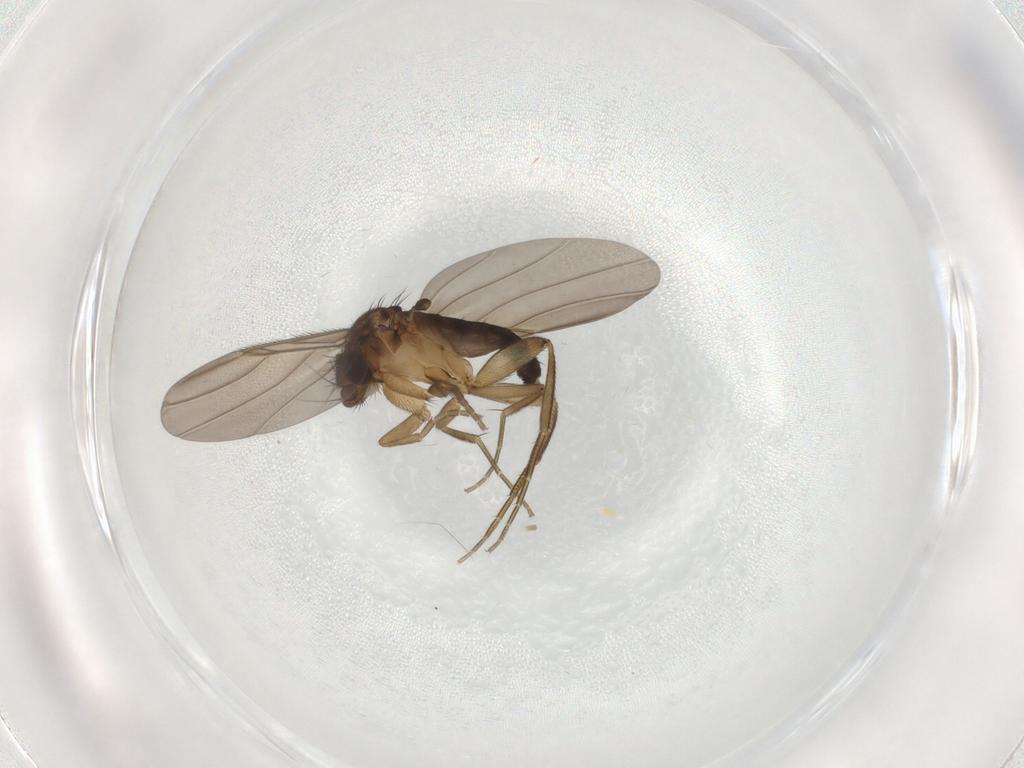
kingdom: Animalia
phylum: Arthropoda
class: Insecta
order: Diptera
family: Phoridae
